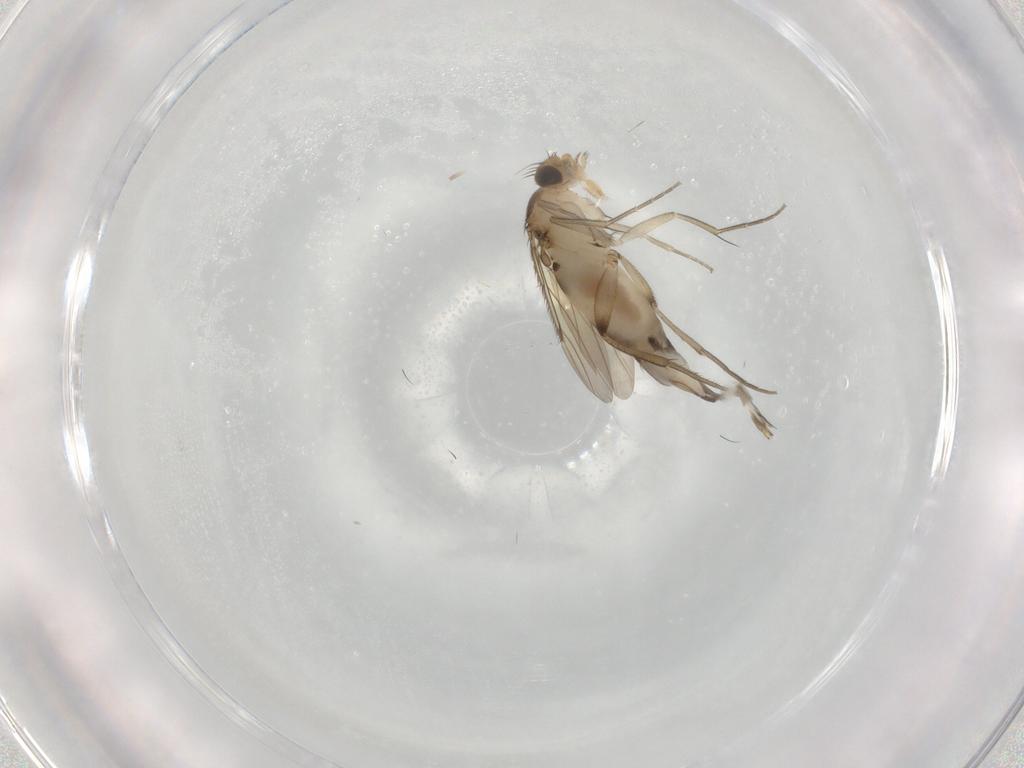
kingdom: Animalia
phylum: Arthropoda
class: Insecta
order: Diptera
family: Phoridae
